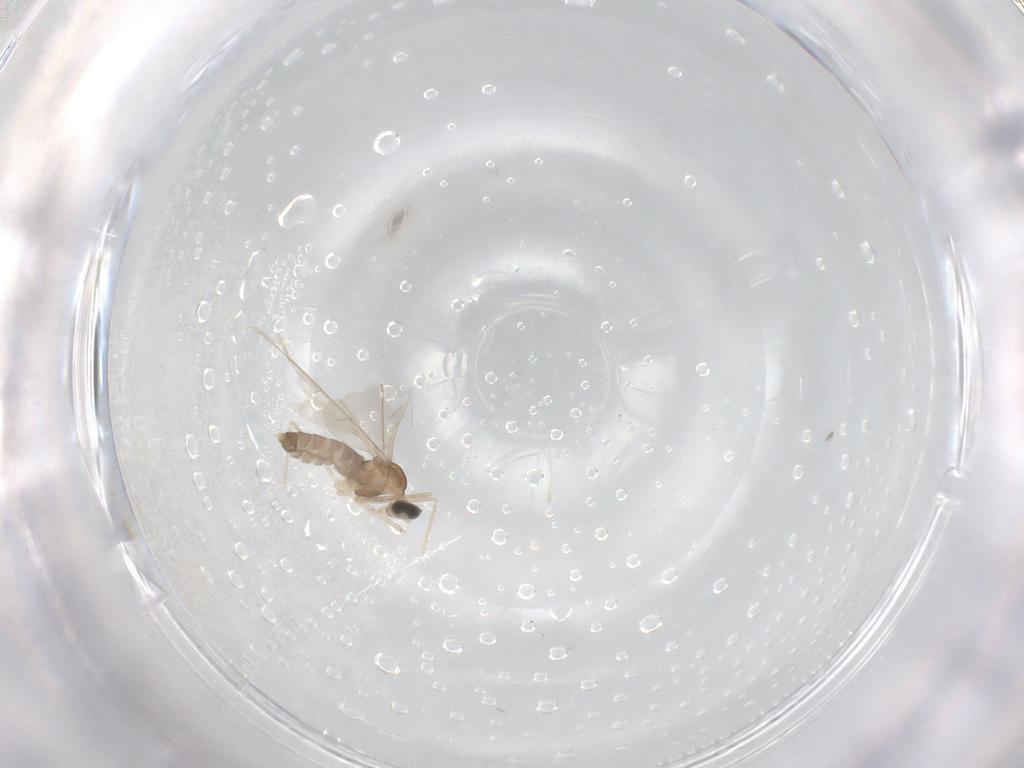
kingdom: Animalia
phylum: Arthropoda
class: Insecta
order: Diptera
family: Cecidomyiidae
